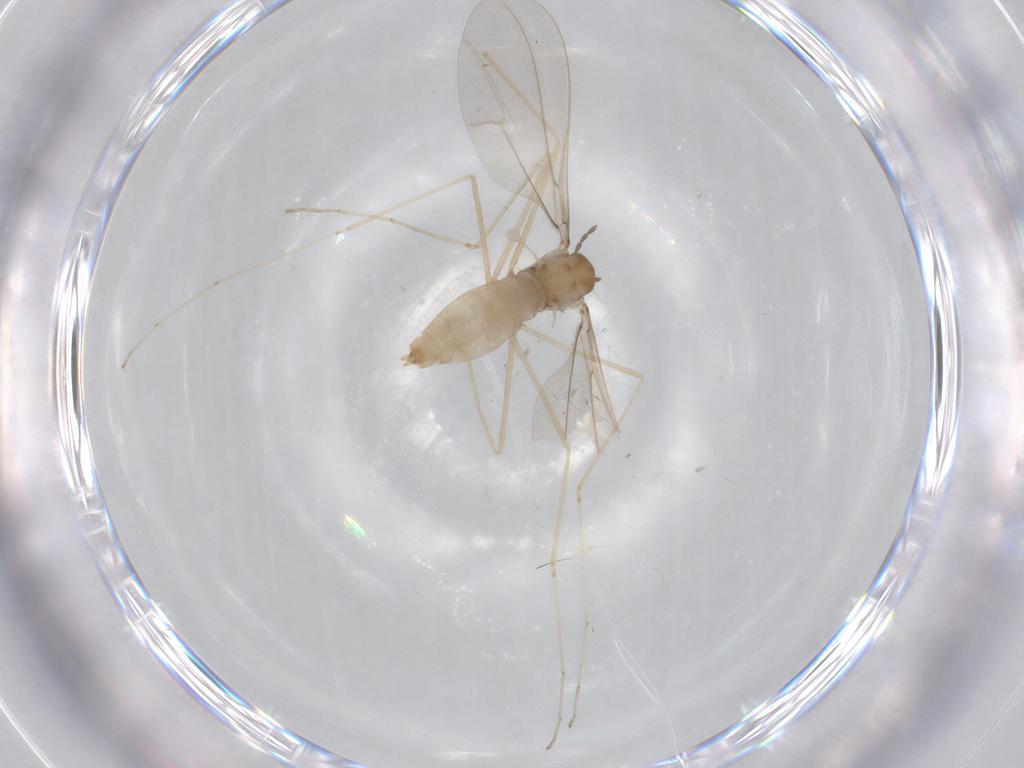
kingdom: Animalia
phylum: Arthropoda
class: Insecta
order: Diptera
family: Cecidomyiidae
